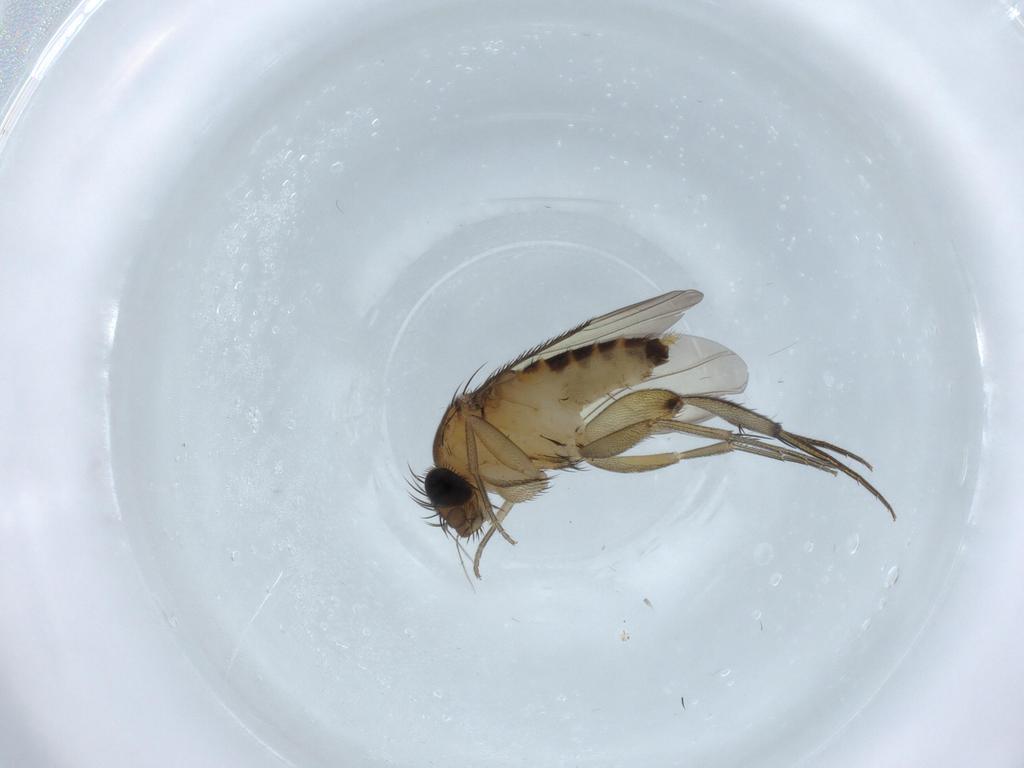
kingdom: Animalia
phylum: Arthropoda
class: Insecta
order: Diptera
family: Phoridae
